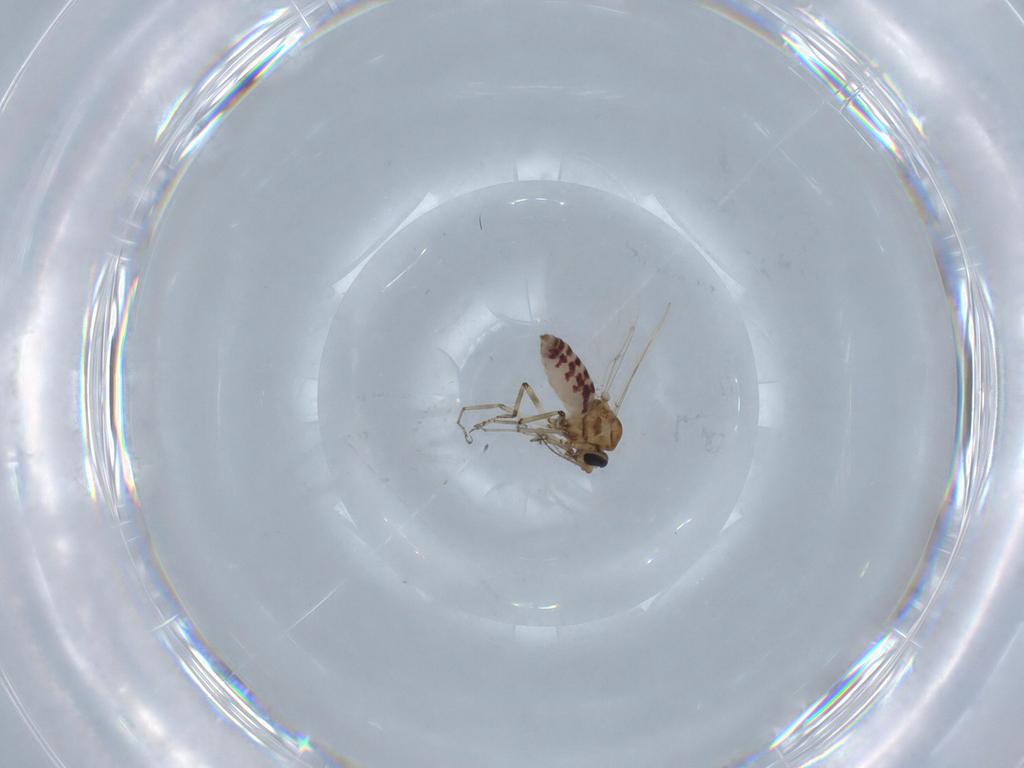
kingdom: Animalia
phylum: Arthropoda
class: Insecta
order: Diptera
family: Ceratopogonidae
